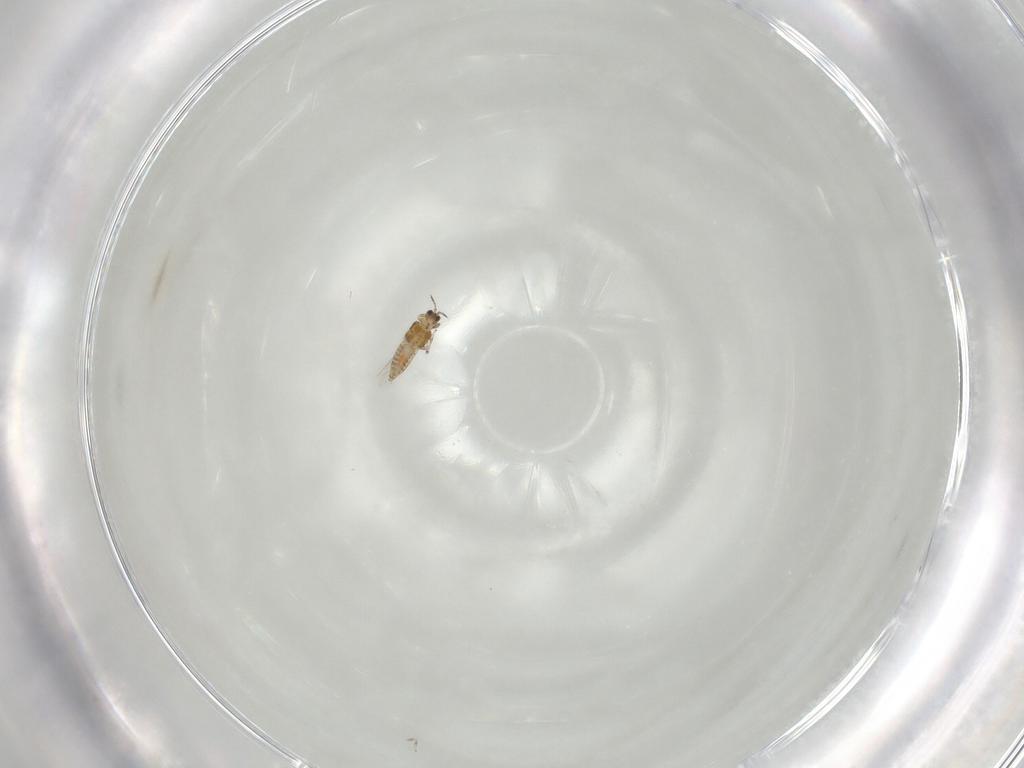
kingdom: Animalia
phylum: Arthropoda
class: Insecta
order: Thysanoptera
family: Thripidae
